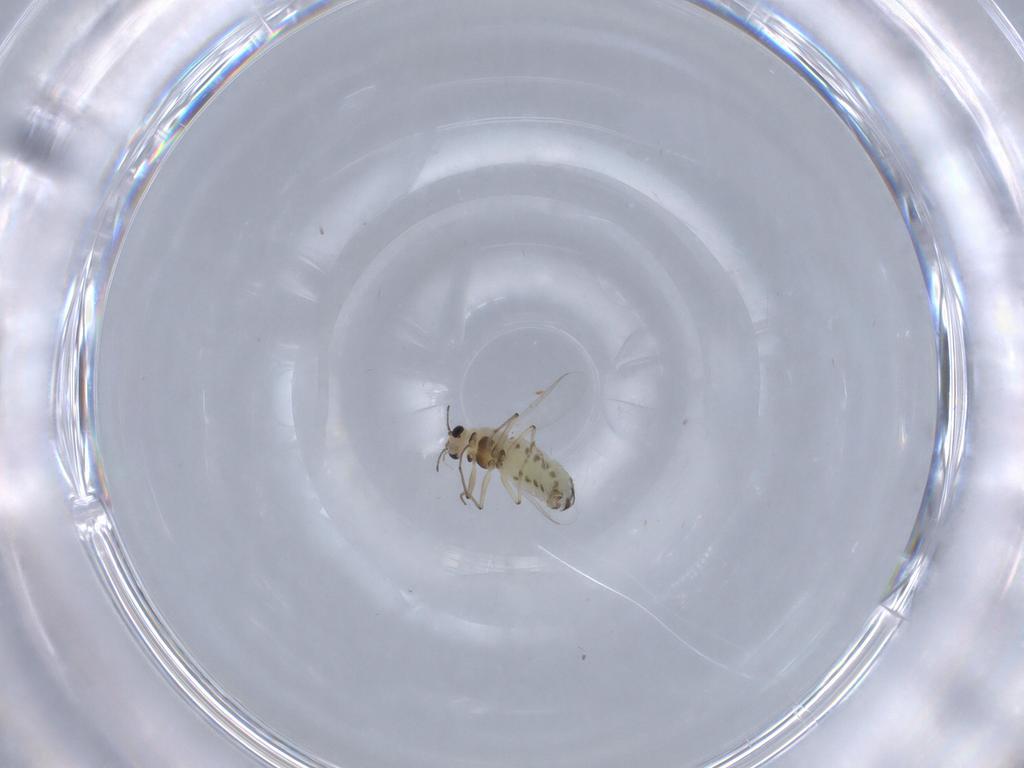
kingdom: Animalia
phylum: Arthropoda
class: Insecta
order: Diptera
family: Chironomidae
